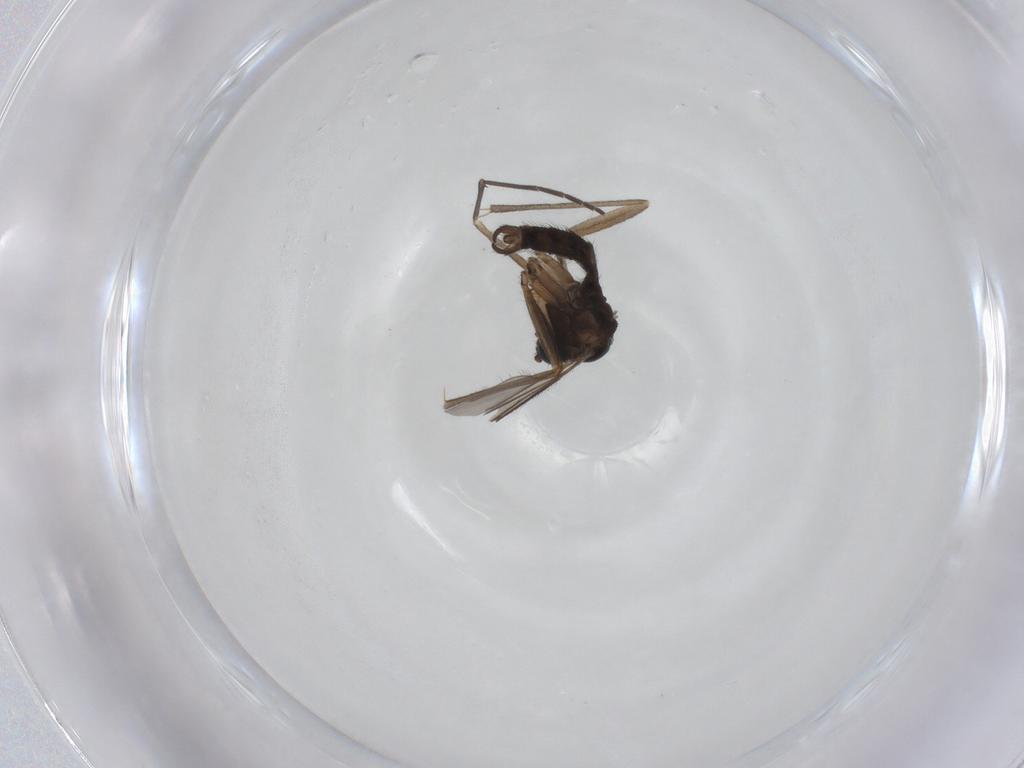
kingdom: Animalia
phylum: Arthropoda
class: Insecta
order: Diptera
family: Sciaridae
